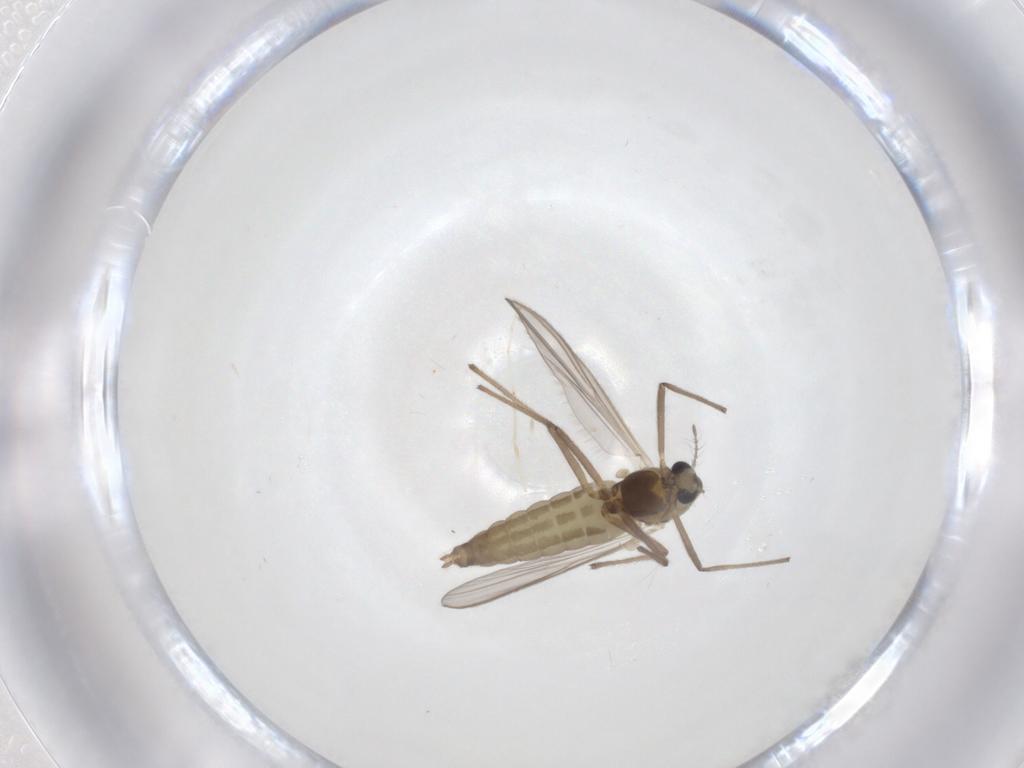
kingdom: Animalia
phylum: Arthropoda
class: Insecta
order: Diptera
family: Chironomidae
